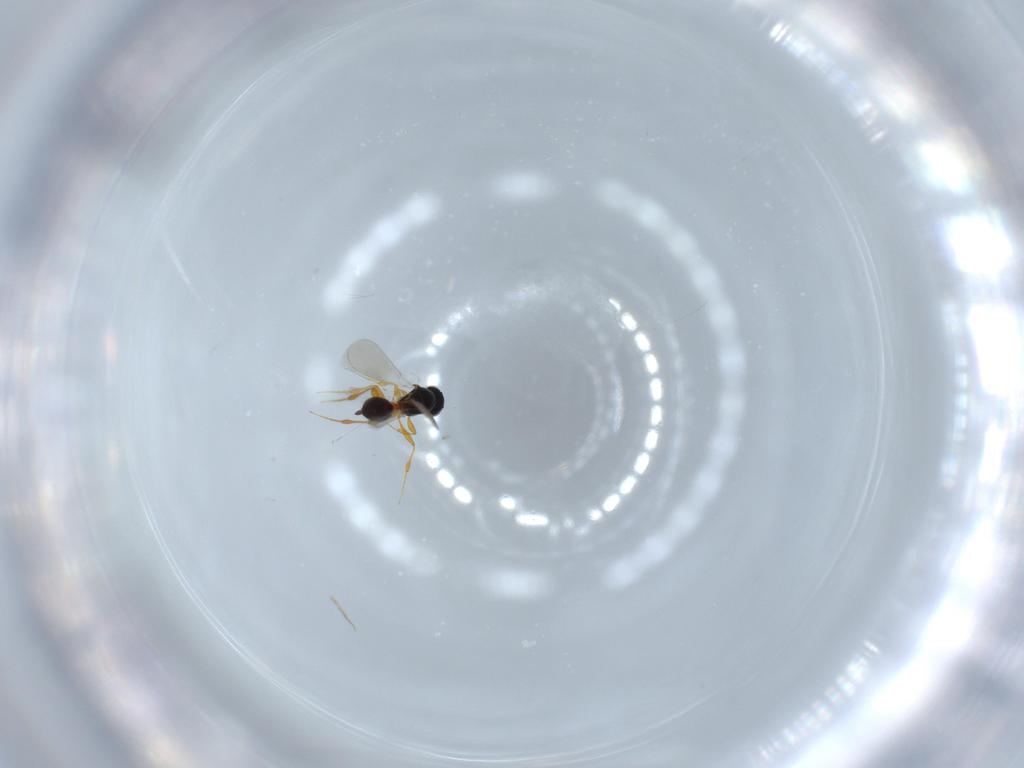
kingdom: Animalia
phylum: Arthropoda
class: Insecta
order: Hymenoptera
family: Platygastridae
